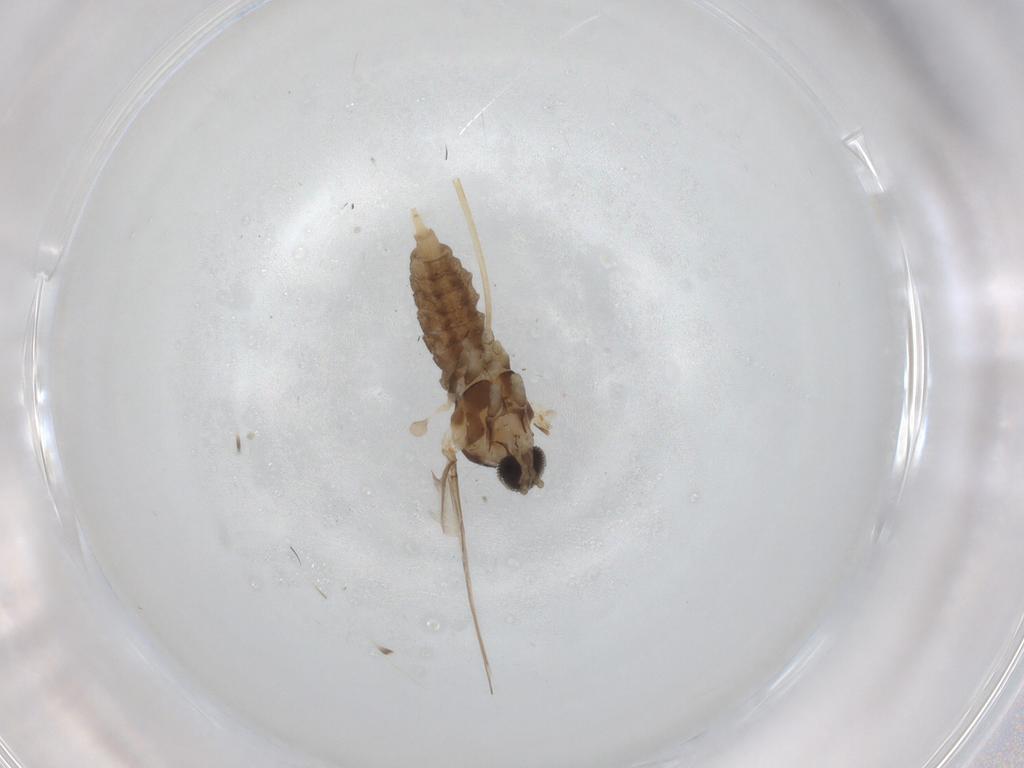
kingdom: Animalia
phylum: Arthropoda
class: Insecta
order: Diptera
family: Cecidomyiidae
